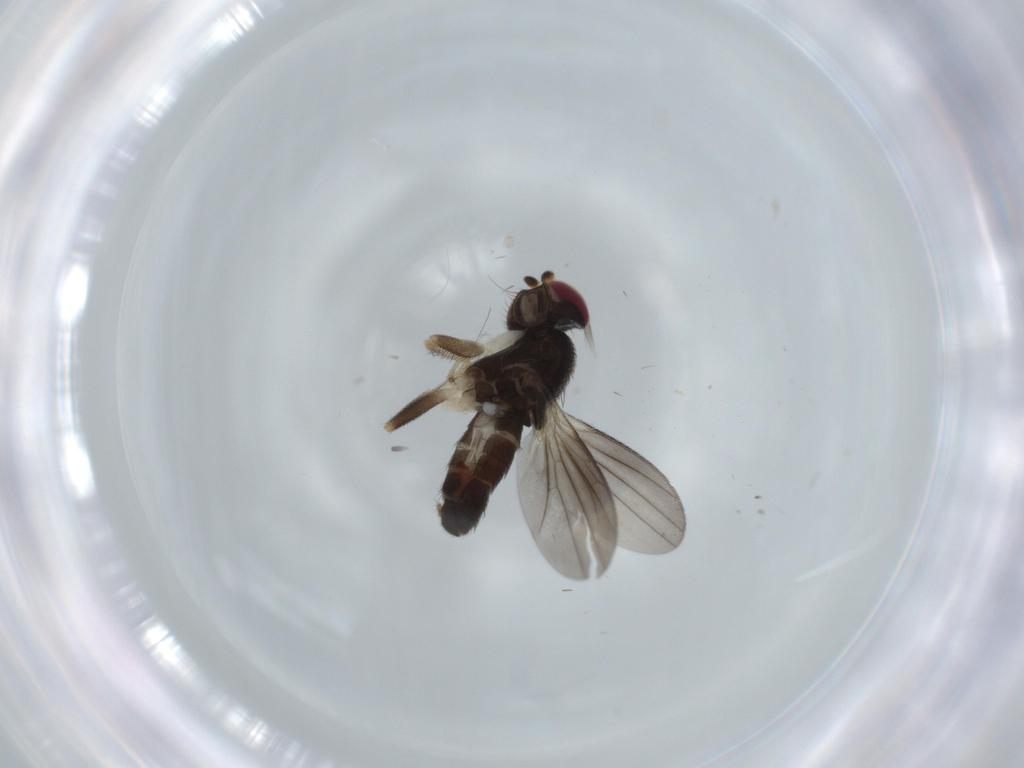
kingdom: Animalia
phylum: Arthropoda
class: Insecta
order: Diptera
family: Clusiidae
